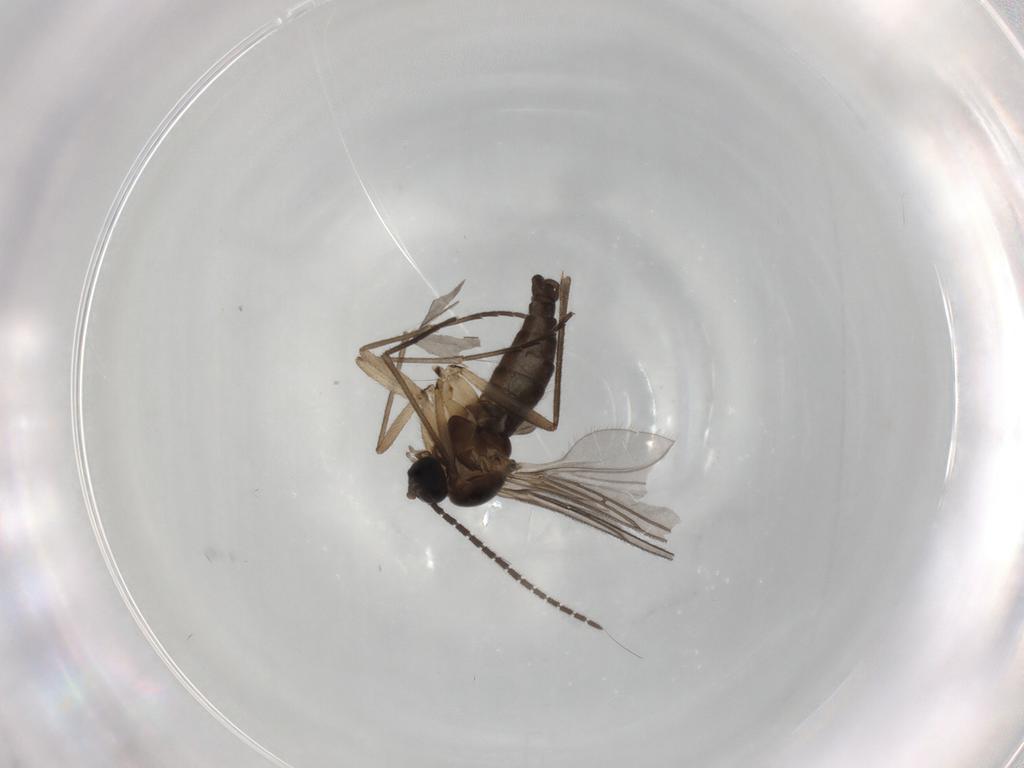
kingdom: Animalia
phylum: Arthropoda
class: Insecta
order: Diptera
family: Sciaridae
